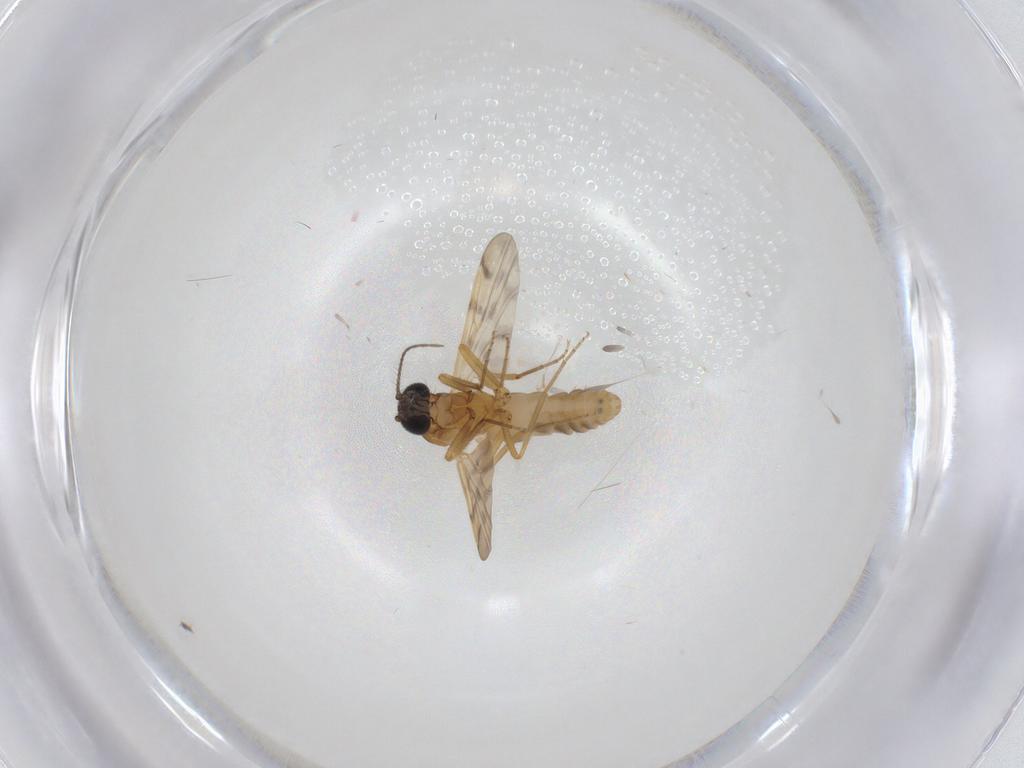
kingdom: Animalia
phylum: Arthropoda
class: Insecta
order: Diptera
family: Ceratopogonidae
